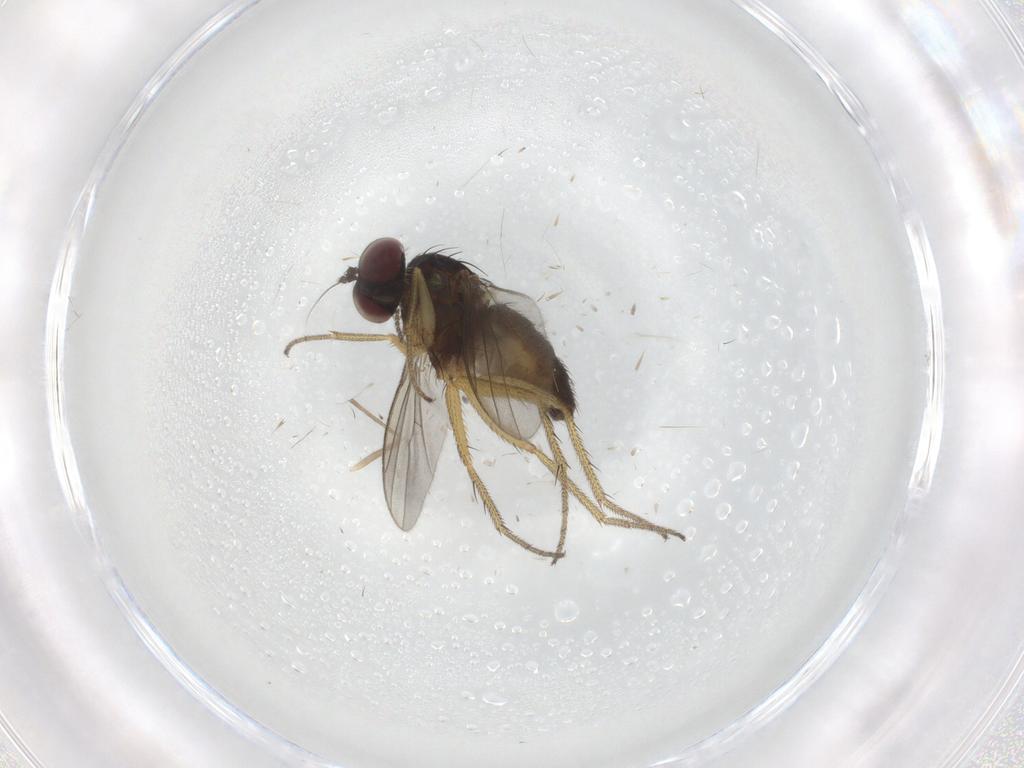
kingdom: Animalia
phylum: Arthropoda
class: Insecta
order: Diptera
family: Dolichopodidae
